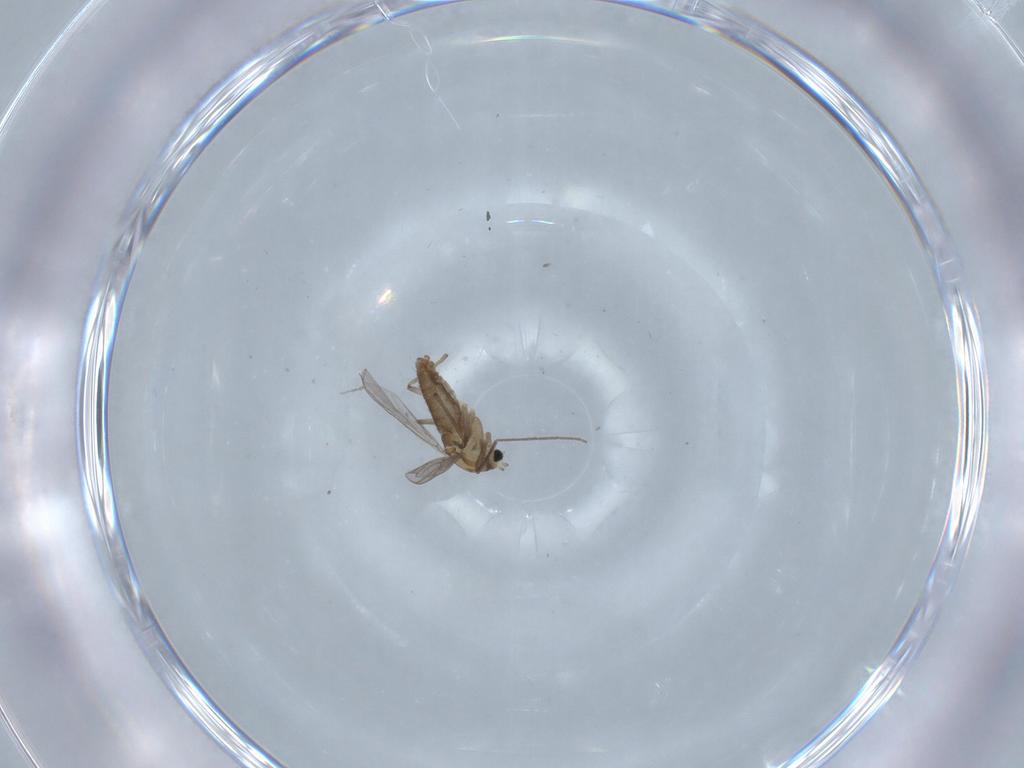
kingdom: Animalia
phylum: Arthropoda
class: Insecta
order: Diptera
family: Chironomidae
